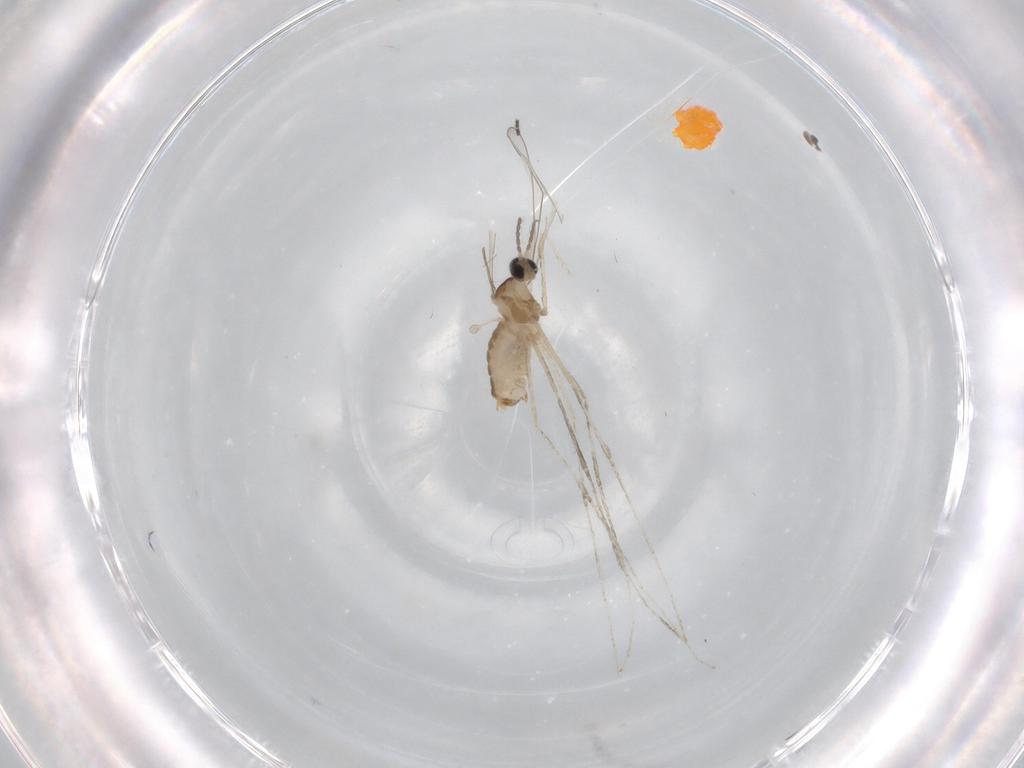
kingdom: Animalia
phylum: Arthropoda
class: Insecta
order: Diptera
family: Cecidomyiidae
